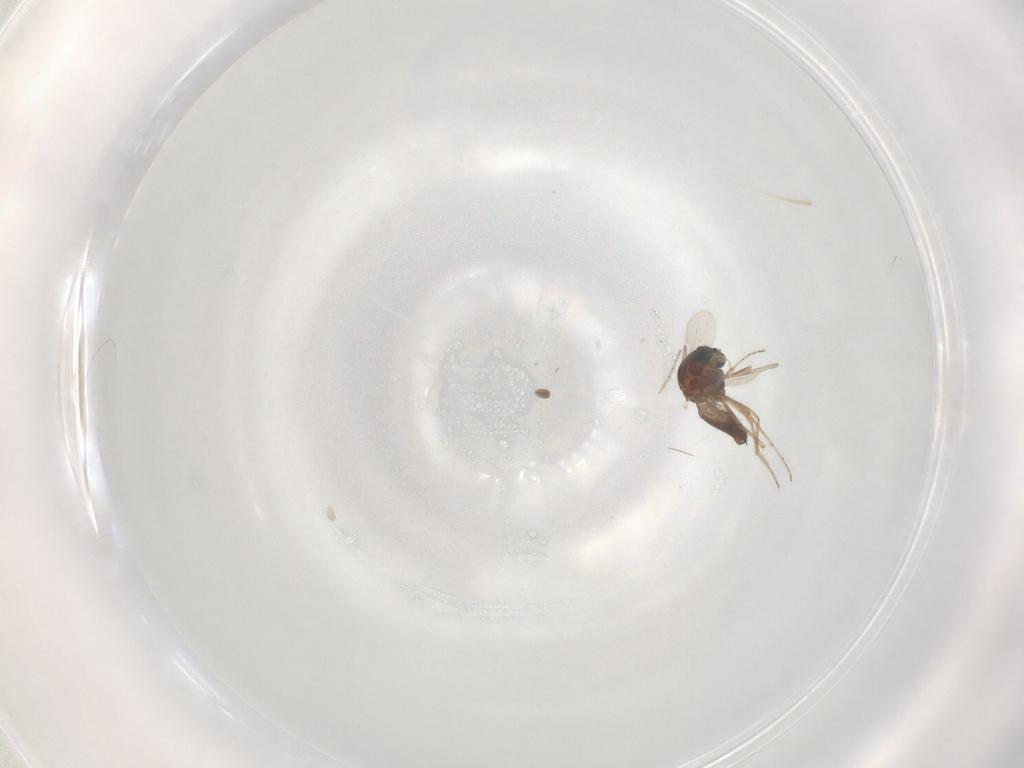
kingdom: Animalia
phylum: Arthropoda
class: Insecta
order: Diptera
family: Ceratopogonidae
